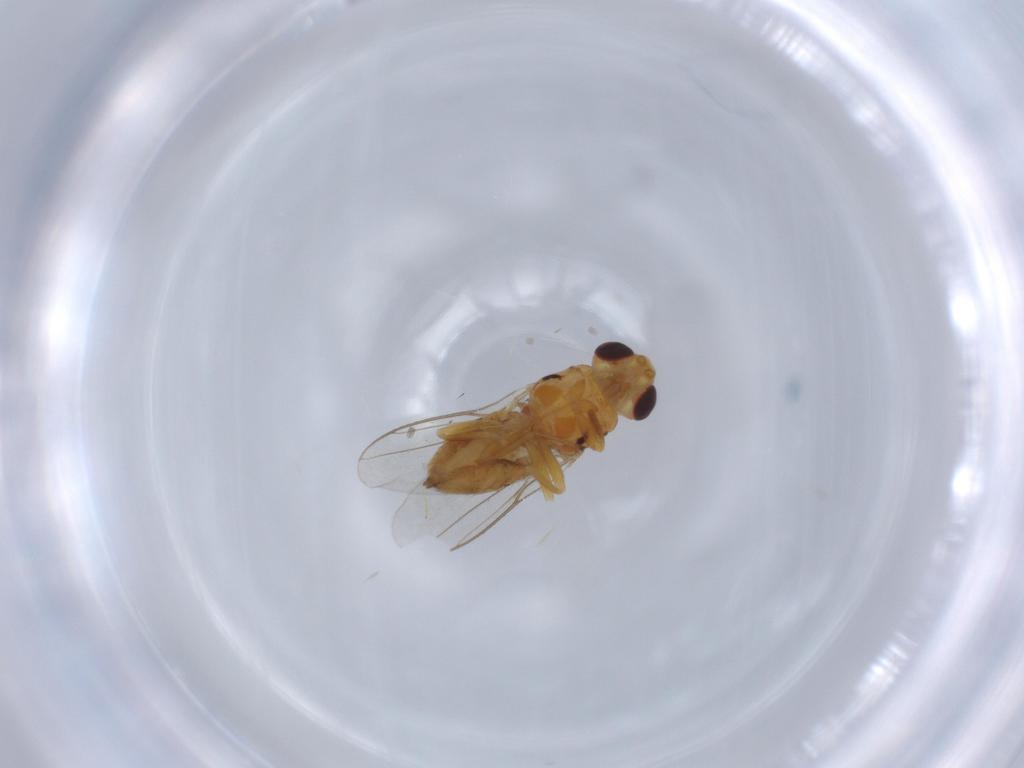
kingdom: Animalia
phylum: Arthropoda
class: Insecta
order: Diptera
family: Chloropidae
